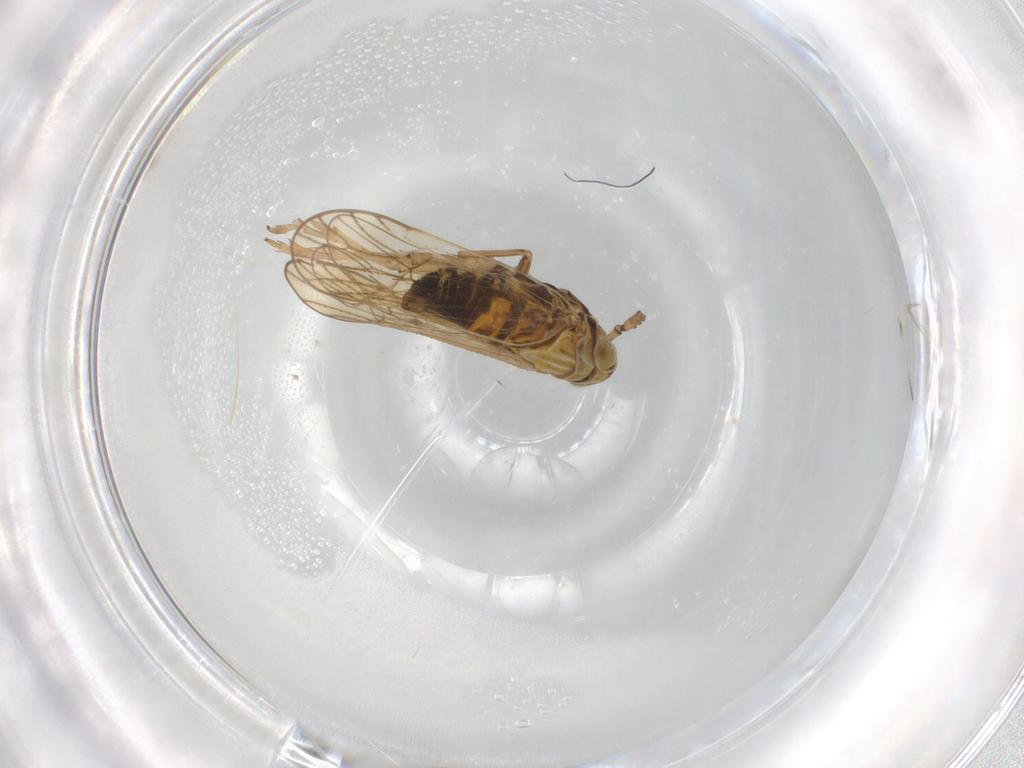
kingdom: Animalia
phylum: Arthropoda
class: Insecta
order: Hemiptera
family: Delphacidae
